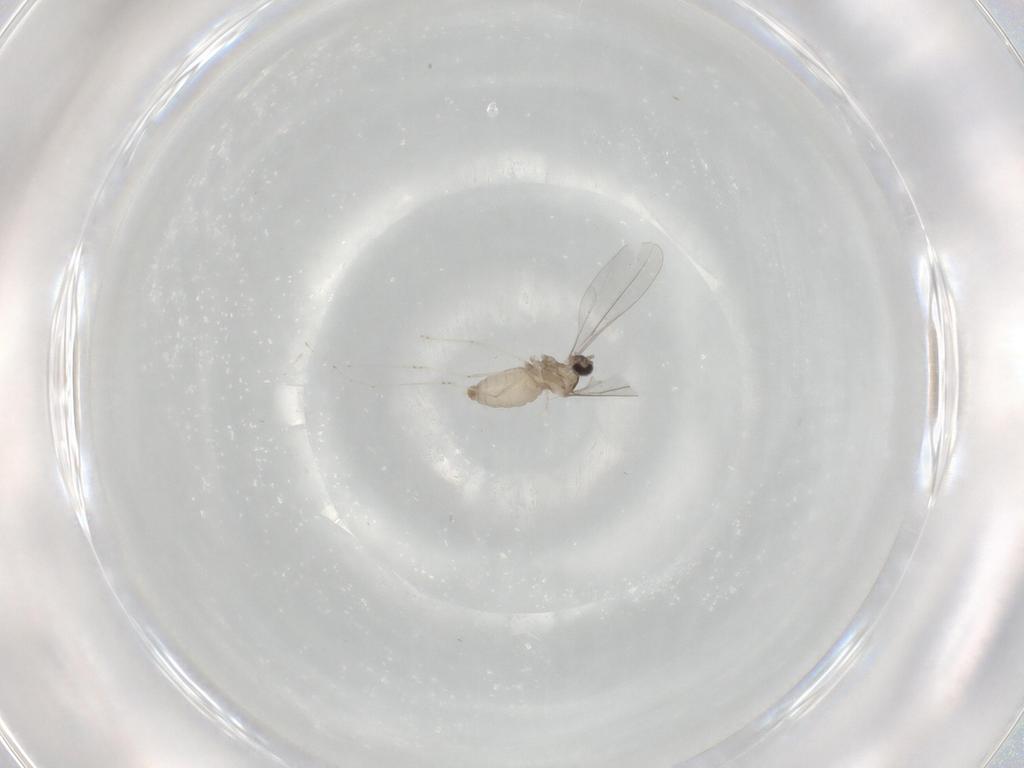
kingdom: Animalia
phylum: Arthropoda
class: Insecta
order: Diptera
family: Cecidomyiidae
